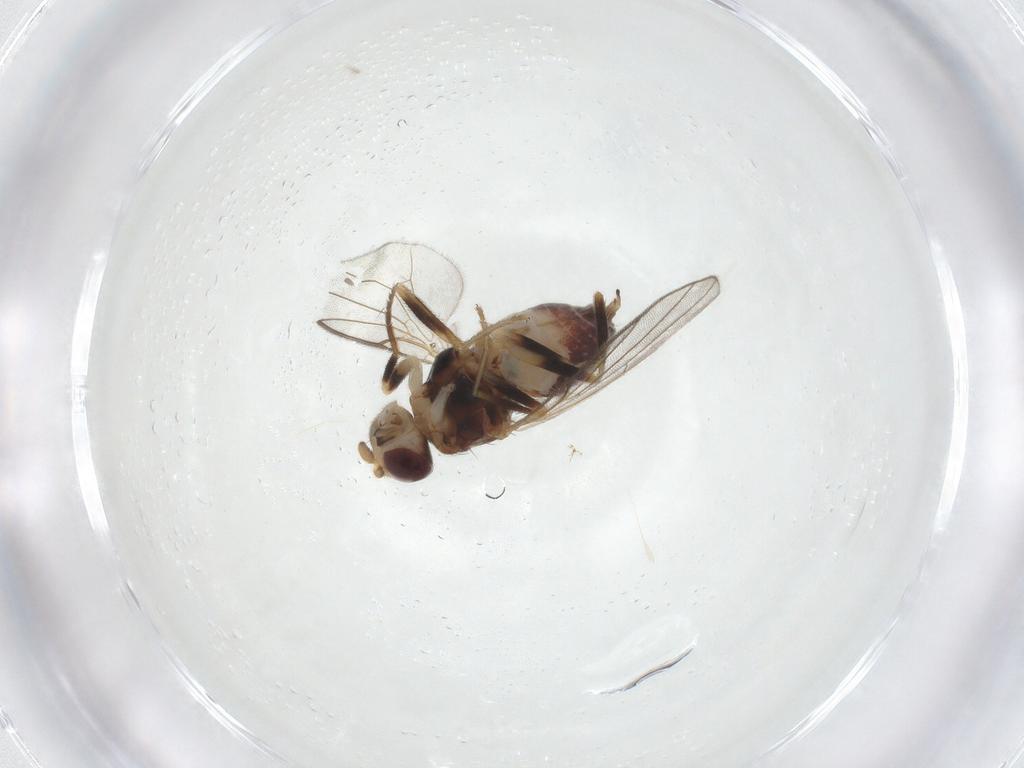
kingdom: Animalia
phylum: Arthropoda
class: Insecta
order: Diptera
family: Chloropidae
